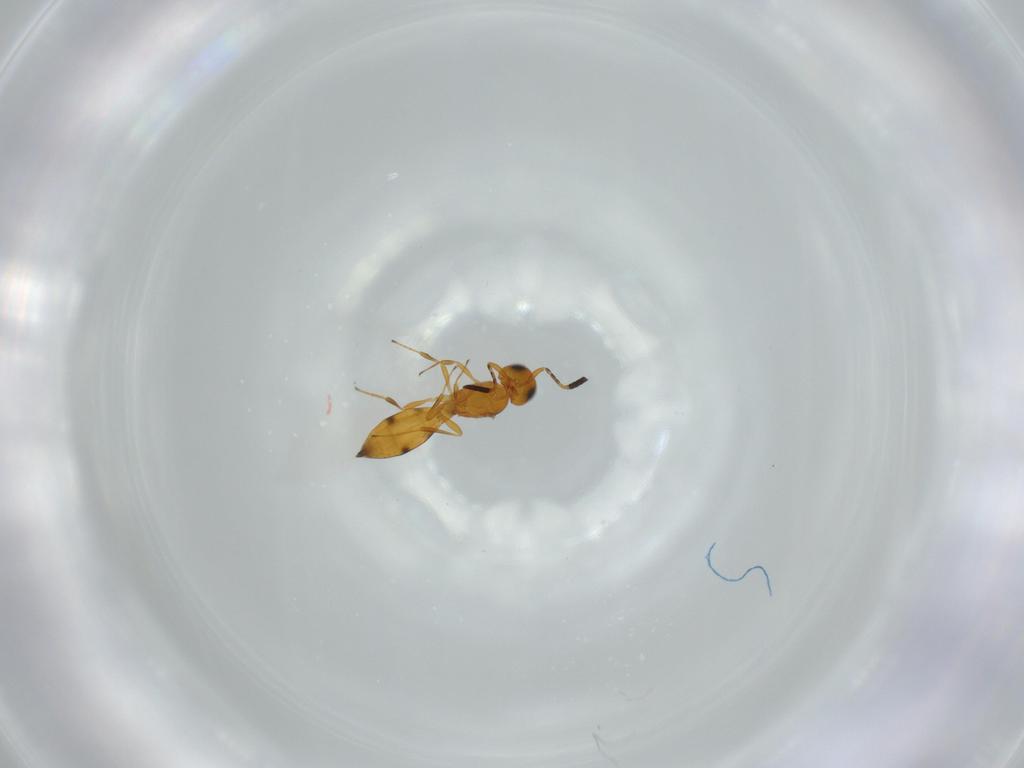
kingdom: Animalia
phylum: Arthropoda
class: Insecta
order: Hymenoptera
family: Scelionidae
